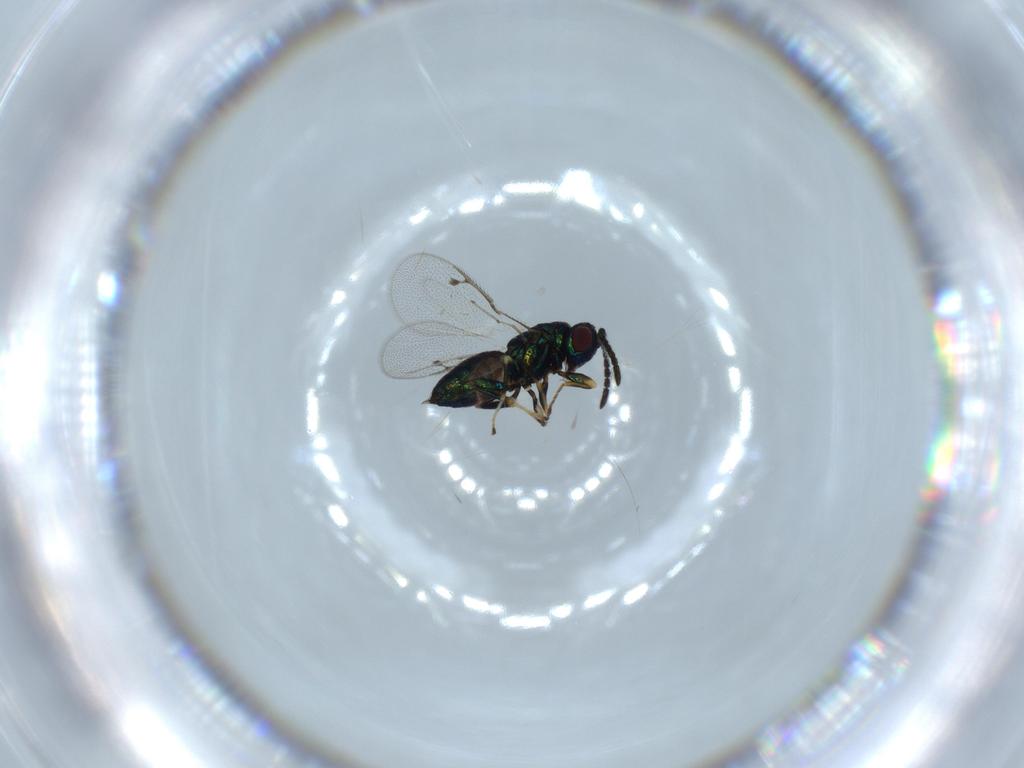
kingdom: Animalia
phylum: Arthropoda
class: Insecta
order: Hymenoptera
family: Pteromalidae
